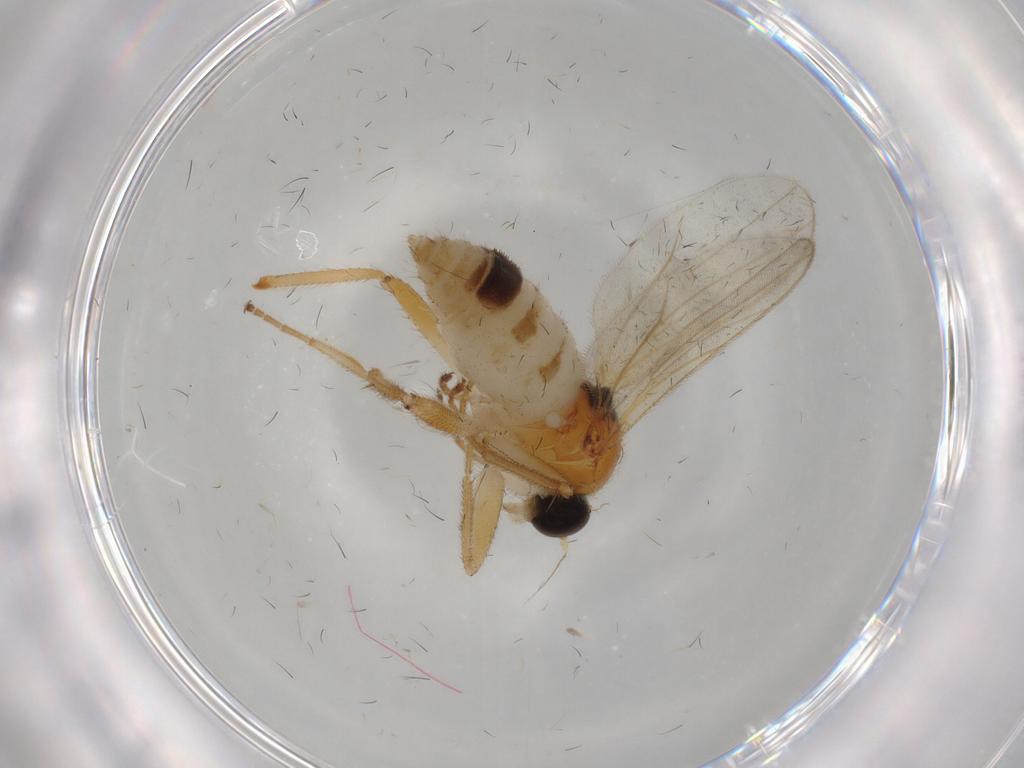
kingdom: Animalia
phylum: Arthropoda
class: Insecta
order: Diptera
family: Hybotidae
